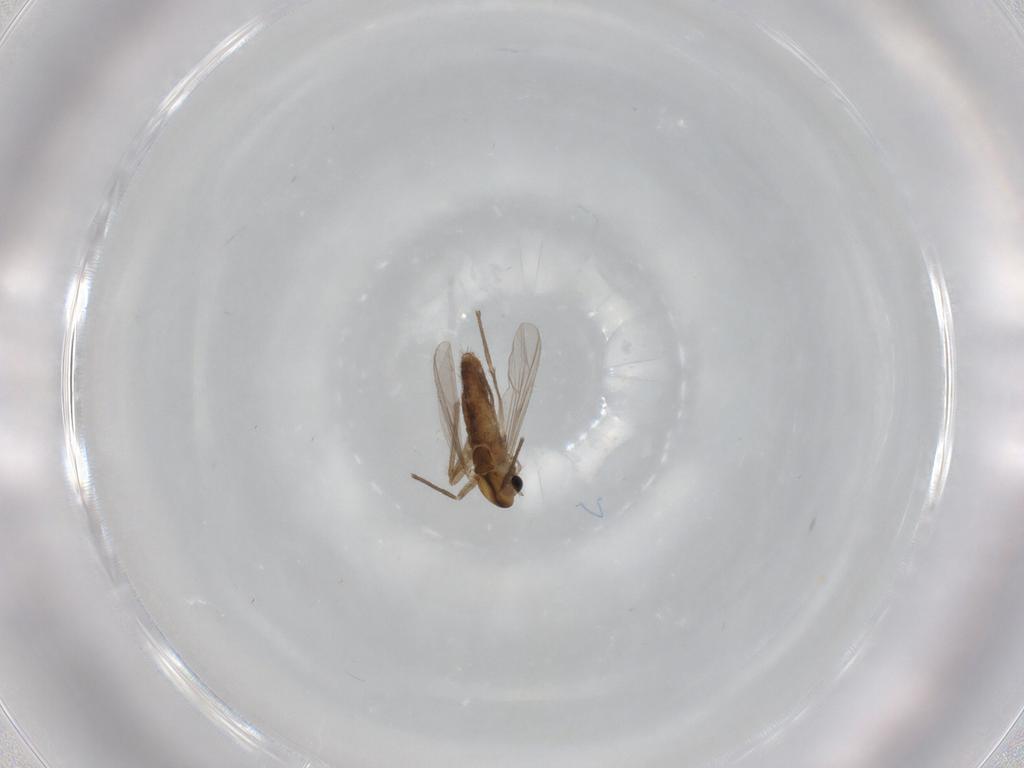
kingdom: Animalia
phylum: Arthropoda
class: Insecta
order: Diptera
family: Chironomidae
